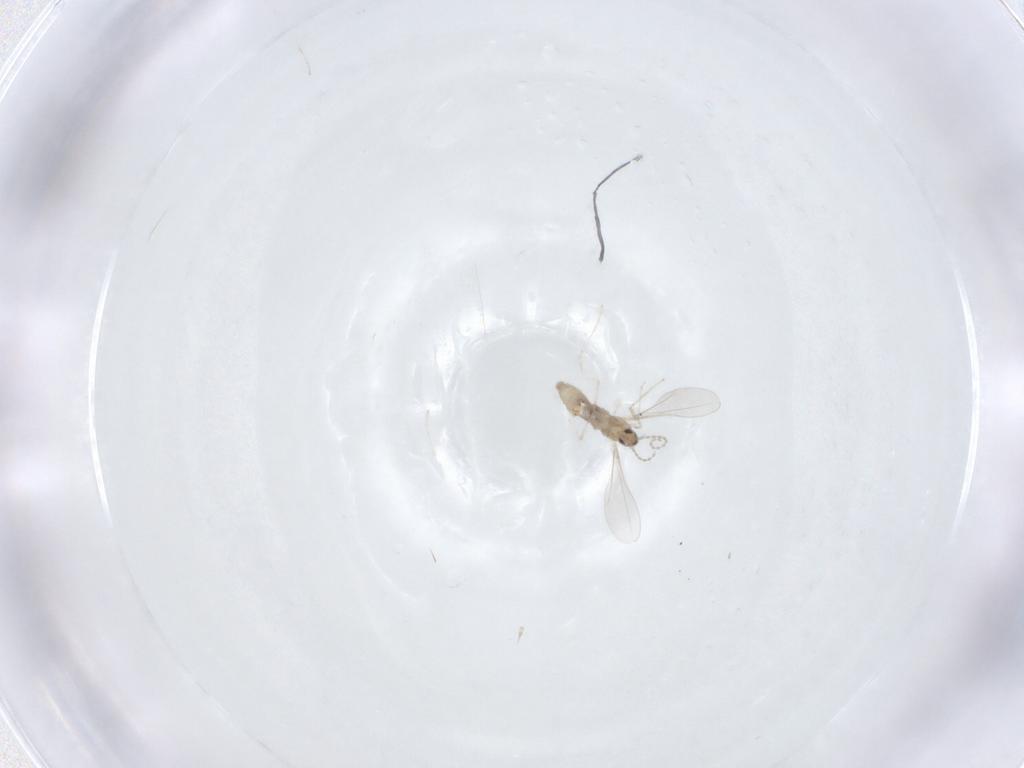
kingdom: Animalia
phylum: Arthropoda
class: Insecta
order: Diptera
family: Cecidomyiidae
